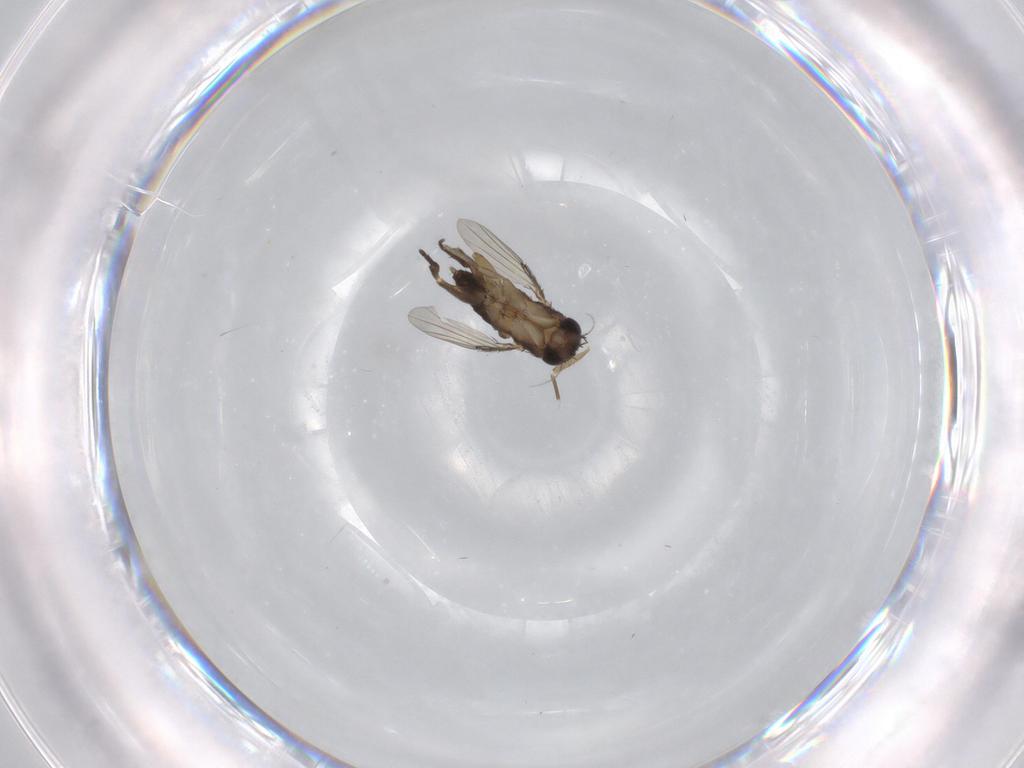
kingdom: Animalia
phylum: Arthropoda
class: Insecta
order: Diptera
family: Phoridae
